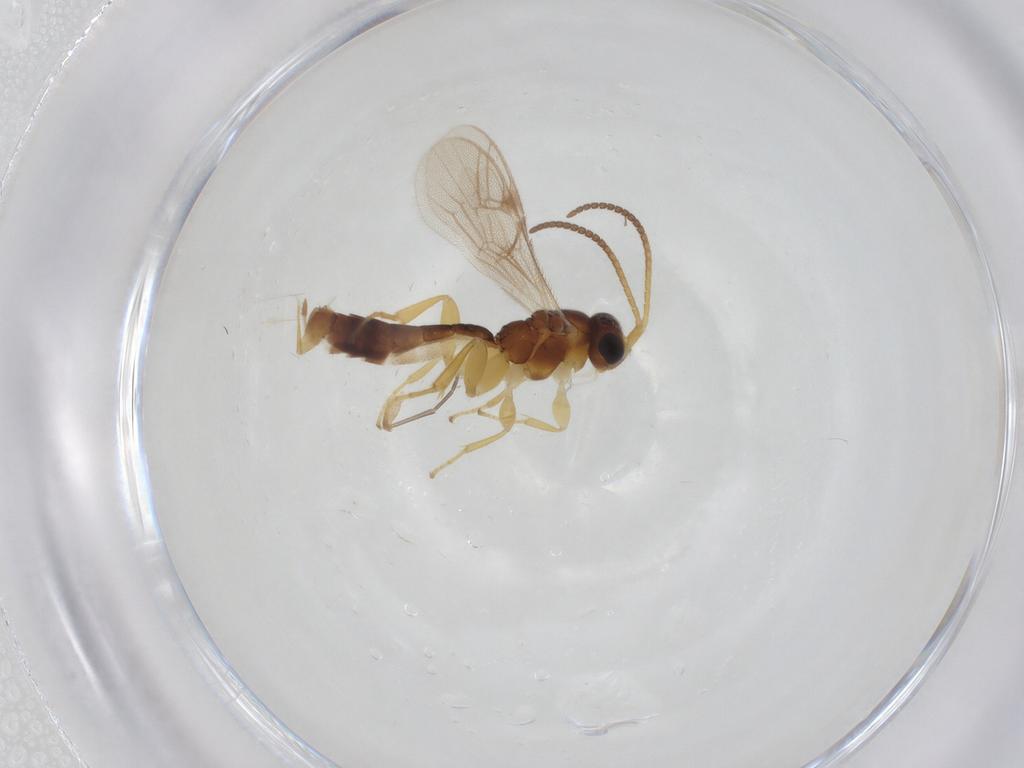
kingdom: Animalia
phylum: Arthropoda
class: Insecta
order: Hymenoptera
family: Ichneumonidae
